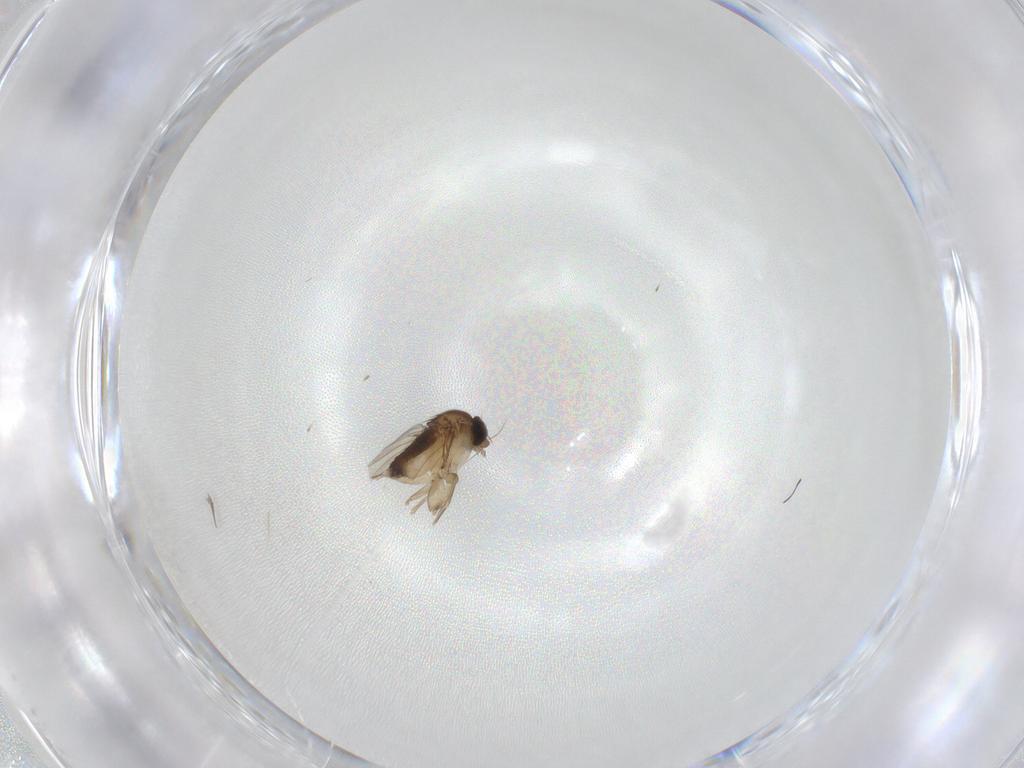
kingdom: Animalia
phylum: Arthropoda
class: Insecta
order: Diptera
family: Phoridae
